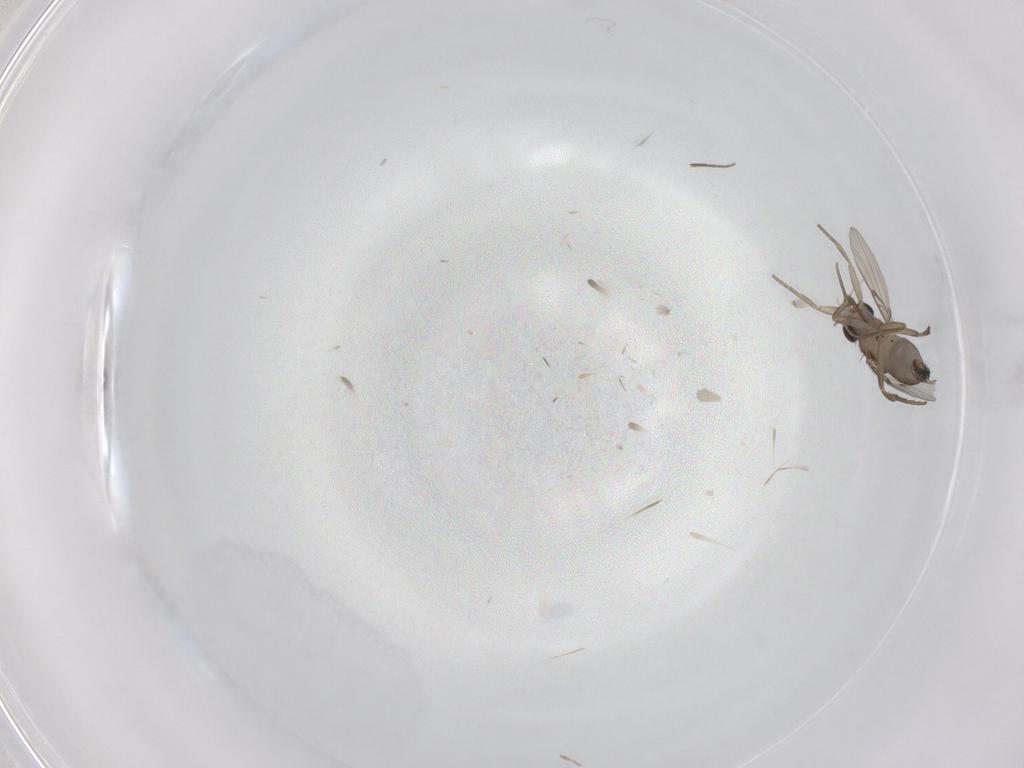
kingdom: Animalia
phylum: Arthropoda
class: Insecta
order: Diptera
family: Phoridae
